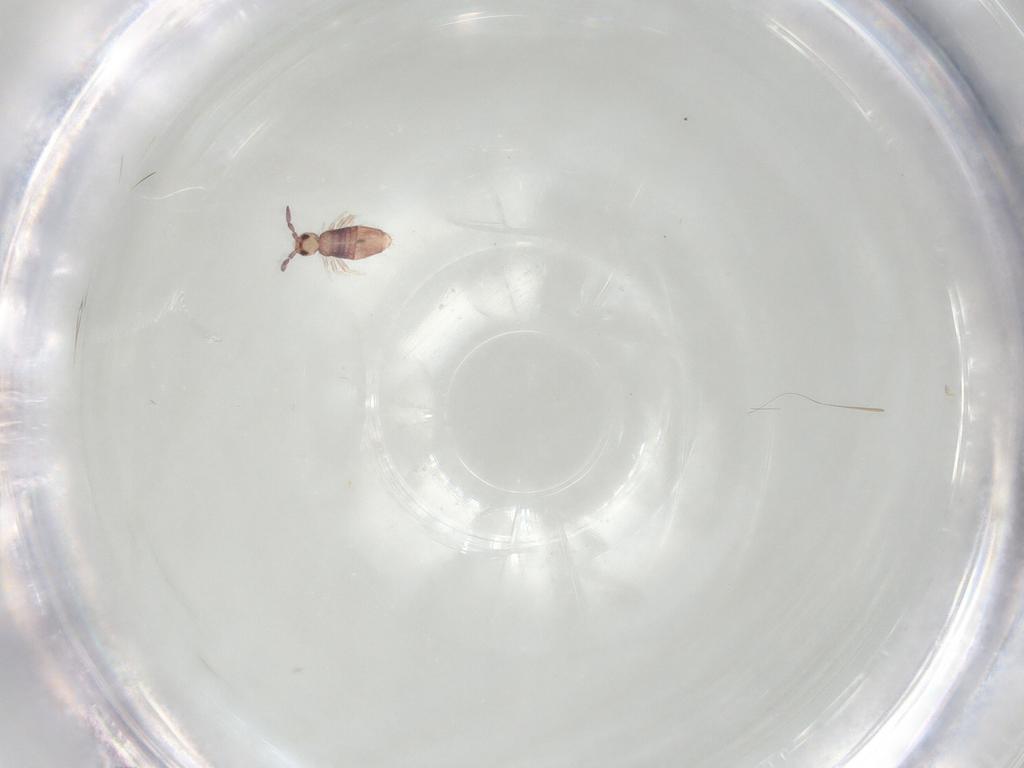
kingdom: Animalia
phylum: Arthropoda
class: Collembola
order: Entomobryomorpha
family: Entomobryidae
